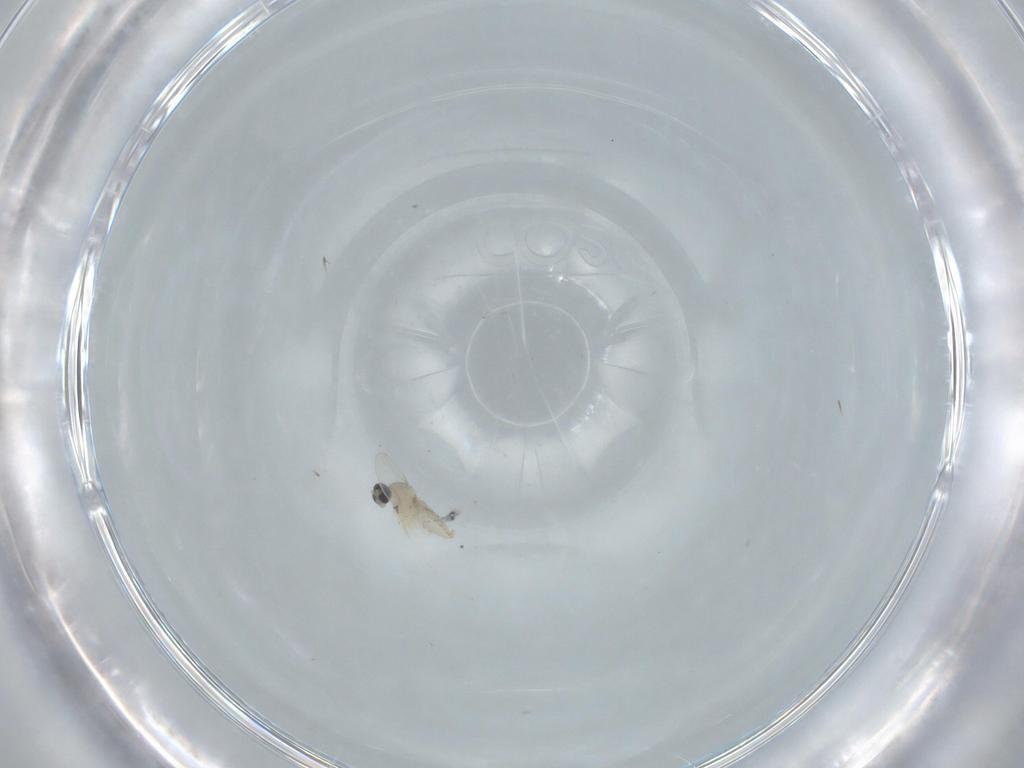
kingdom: Animalia
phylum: Arthropoda
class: Insecta
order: Diptera
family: Cecidomyiidae
